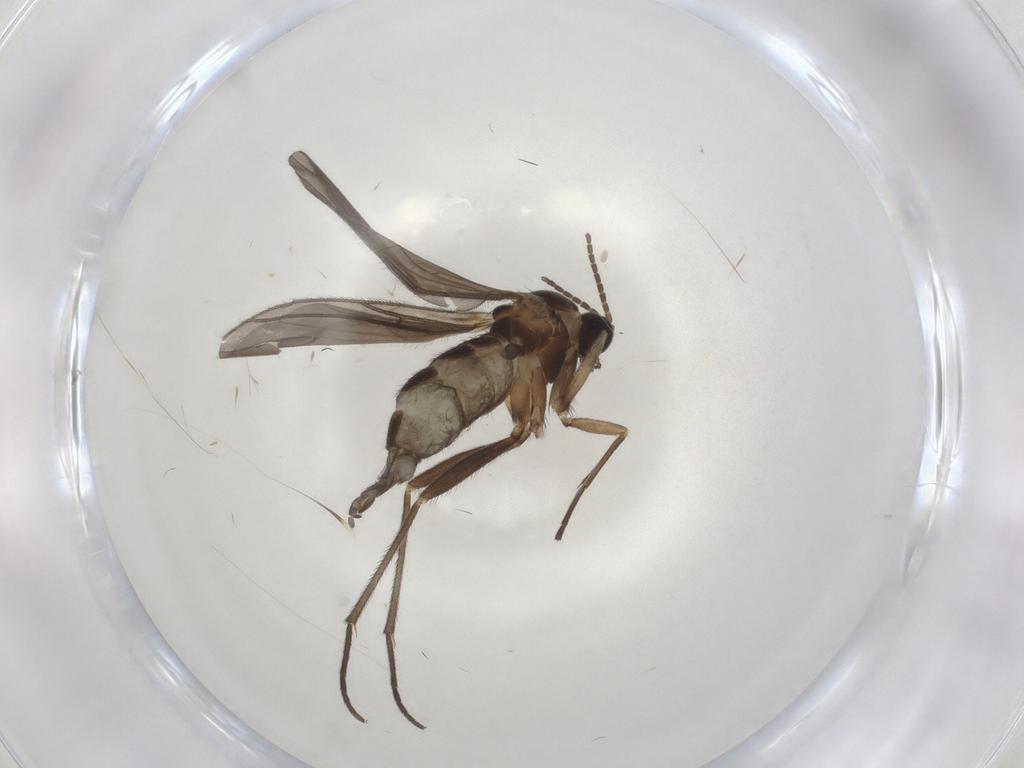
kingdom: Animalia
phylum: Arthropoda
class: Insecta
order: Diptera
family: Sciaridae
